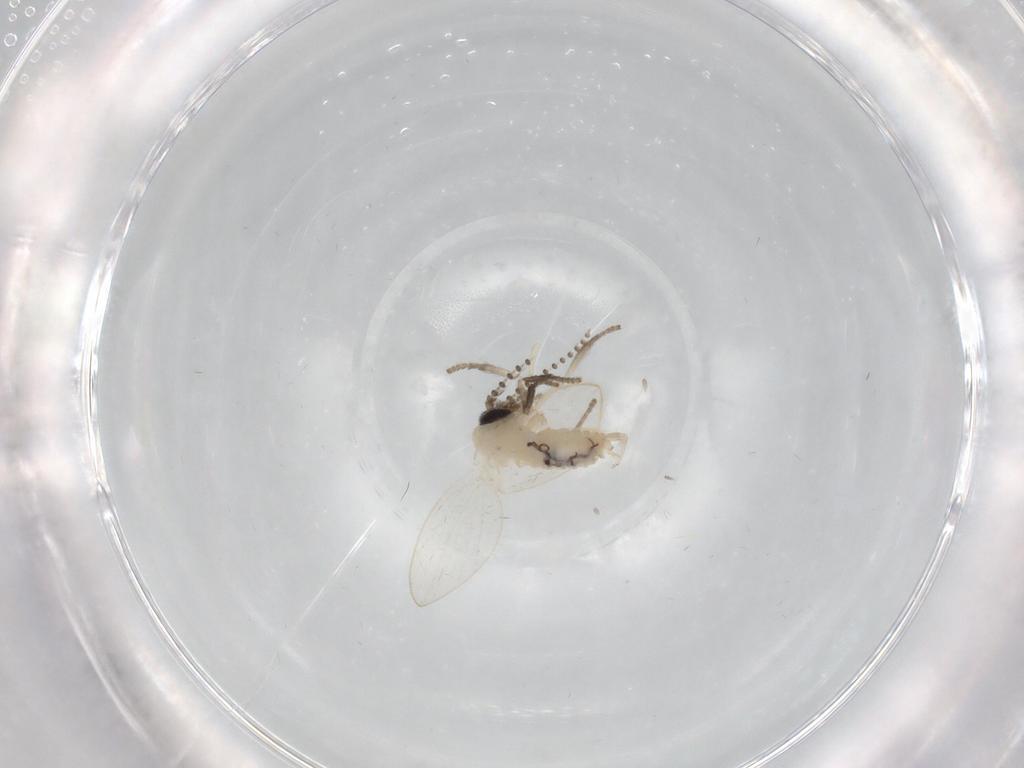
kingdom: Animalia
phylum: Arthropoda
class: Insecta
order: Diptera
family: Psychodidae
